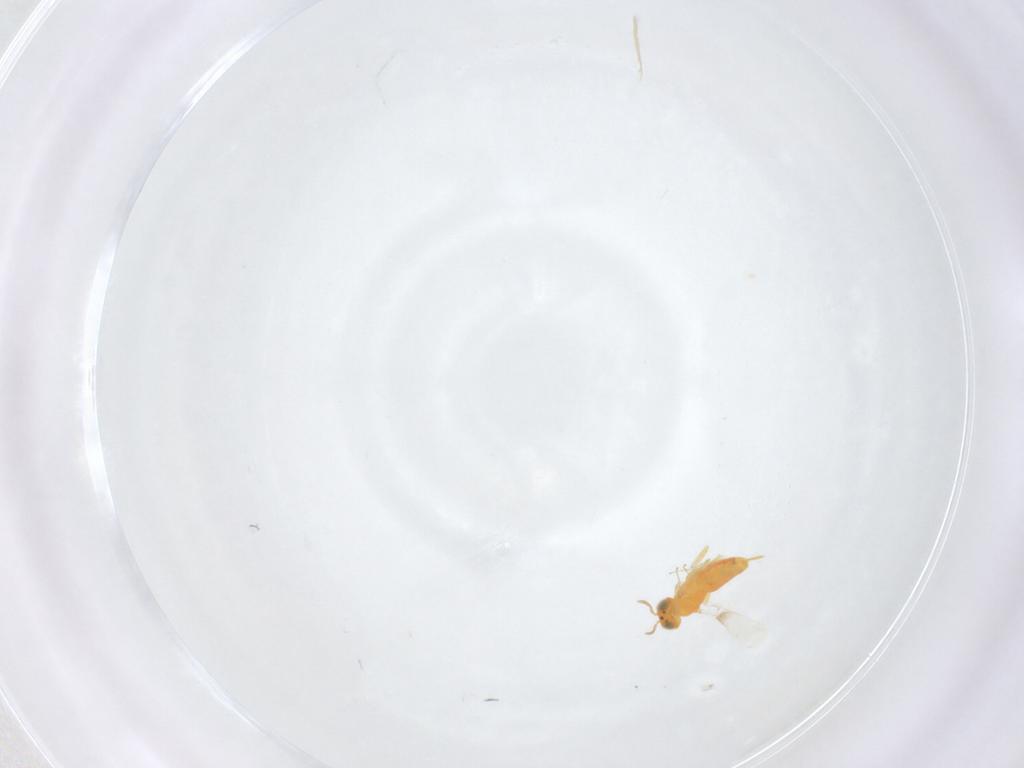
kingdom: Animalia
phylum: Arthropoda
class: Insecta
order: Hymenoptera
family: Aphelinidae
